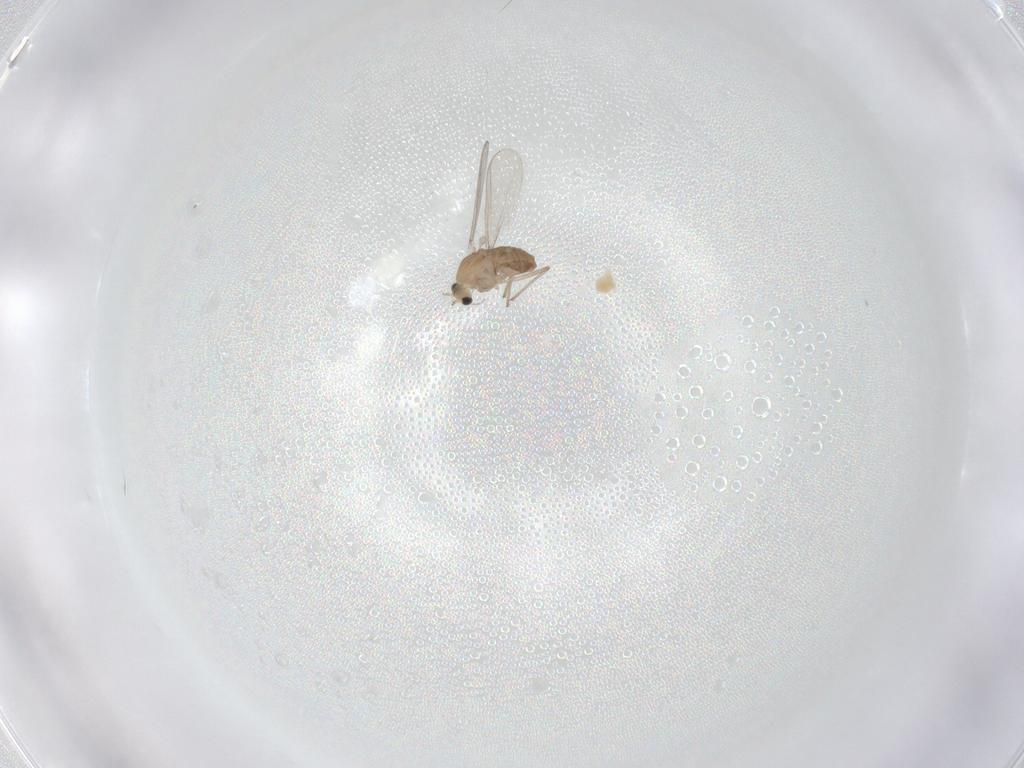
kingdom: Animalia
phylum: Arthropoda
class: Insecta
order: Diptera
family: Chironomidae
